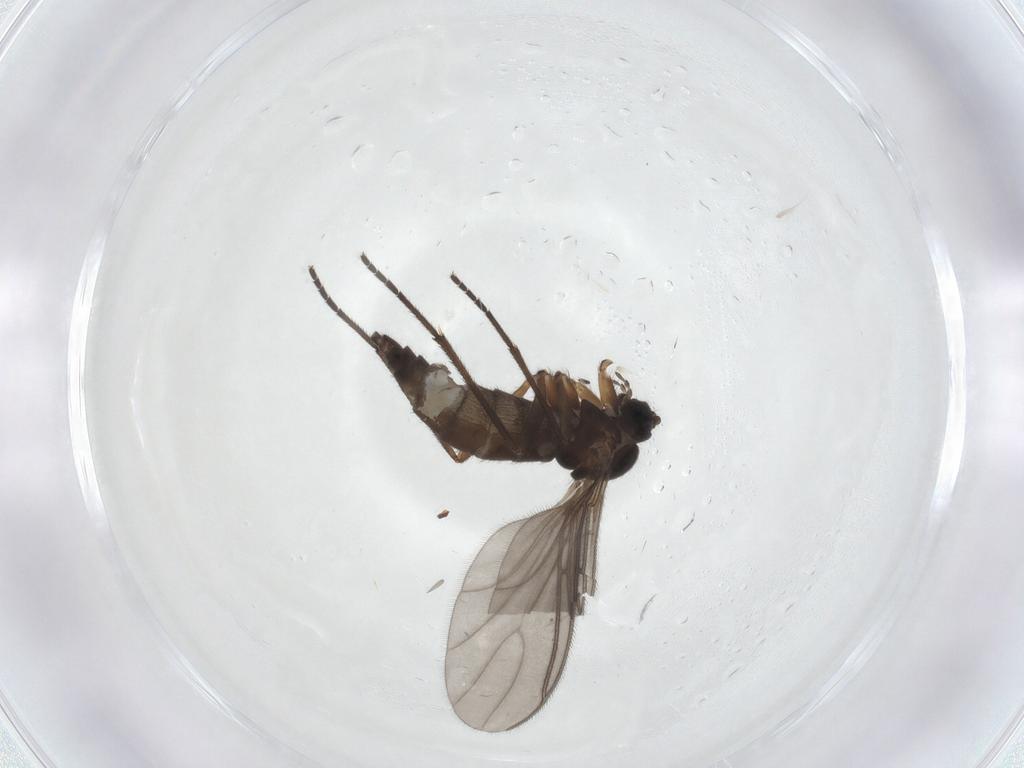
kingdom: Animalia
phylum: Arthropoda
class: Insecta
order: Diptera
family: Sciaridae
